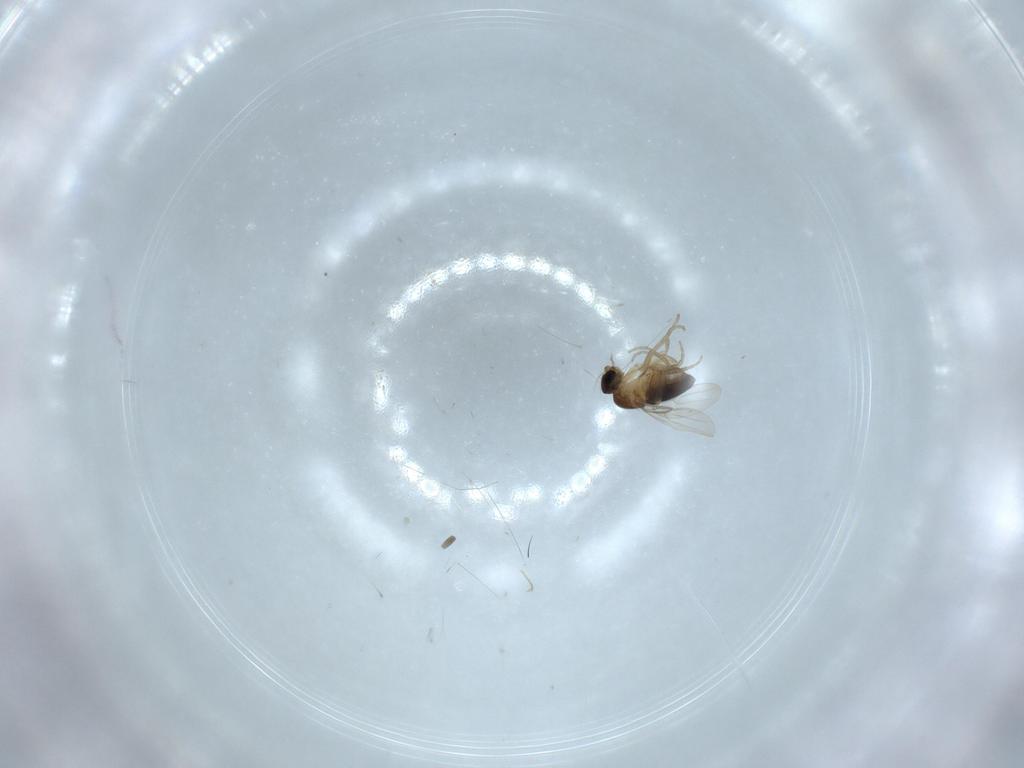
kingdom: Animalia
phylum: Arthropoda
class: Insecta
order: Diptera
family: Phoridae
